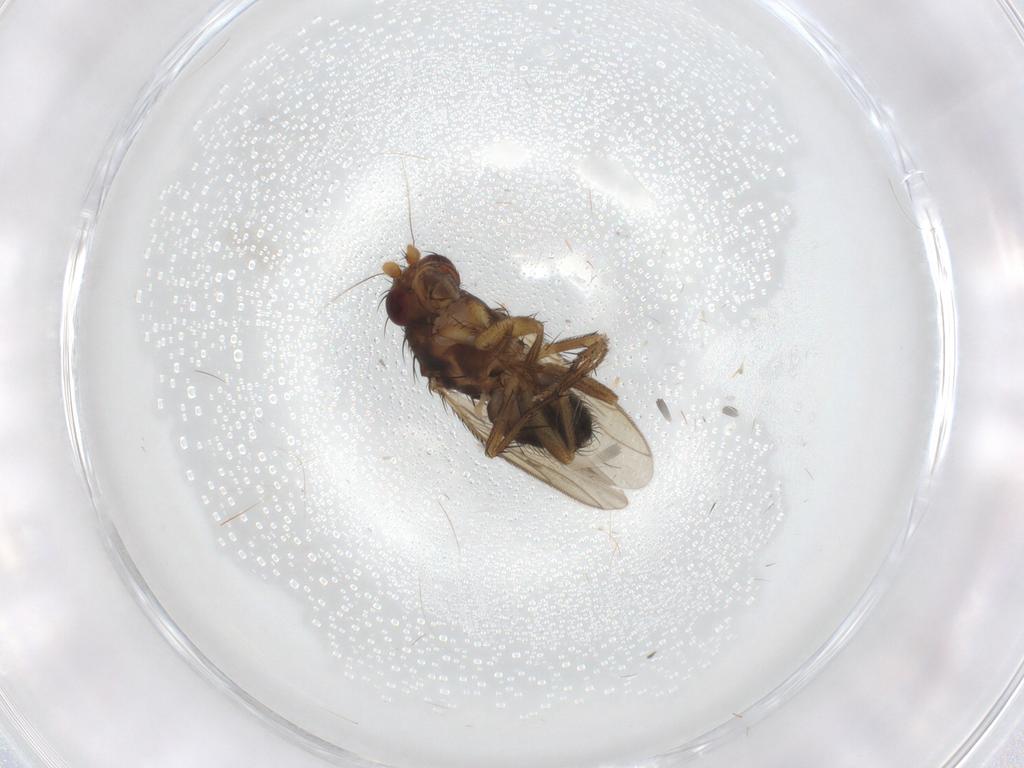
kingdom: Animalia
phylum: Arthropoda
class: Insecta
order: Diptera
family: Sphaeroceridae
